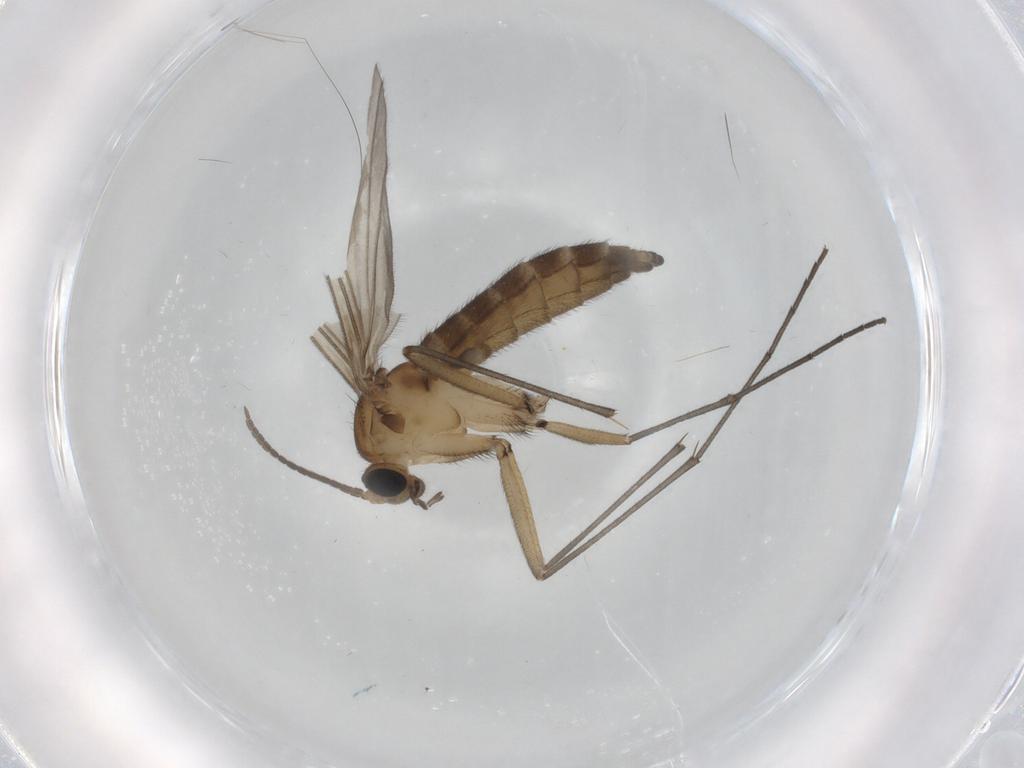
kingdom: Animalia
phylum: Arthropoda
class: Insecta
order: Diptera
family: Sciaridae
